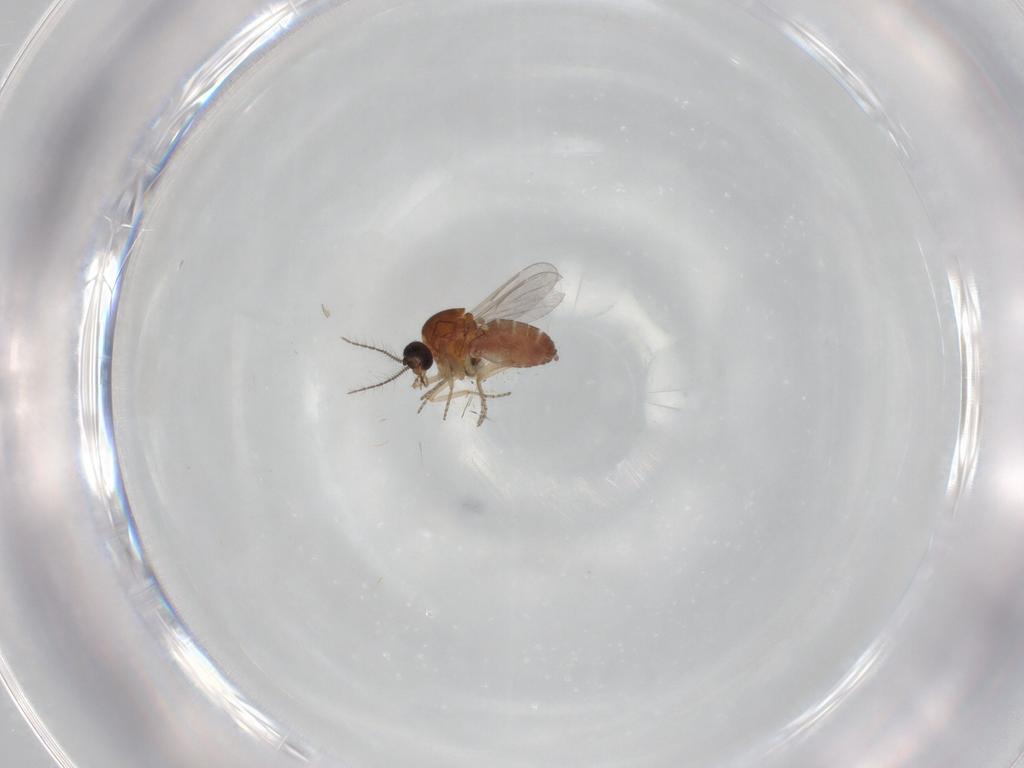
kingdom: Animalia
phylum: Arthropoda
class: Insecta
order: Diptera
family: Ceratopogonidae
